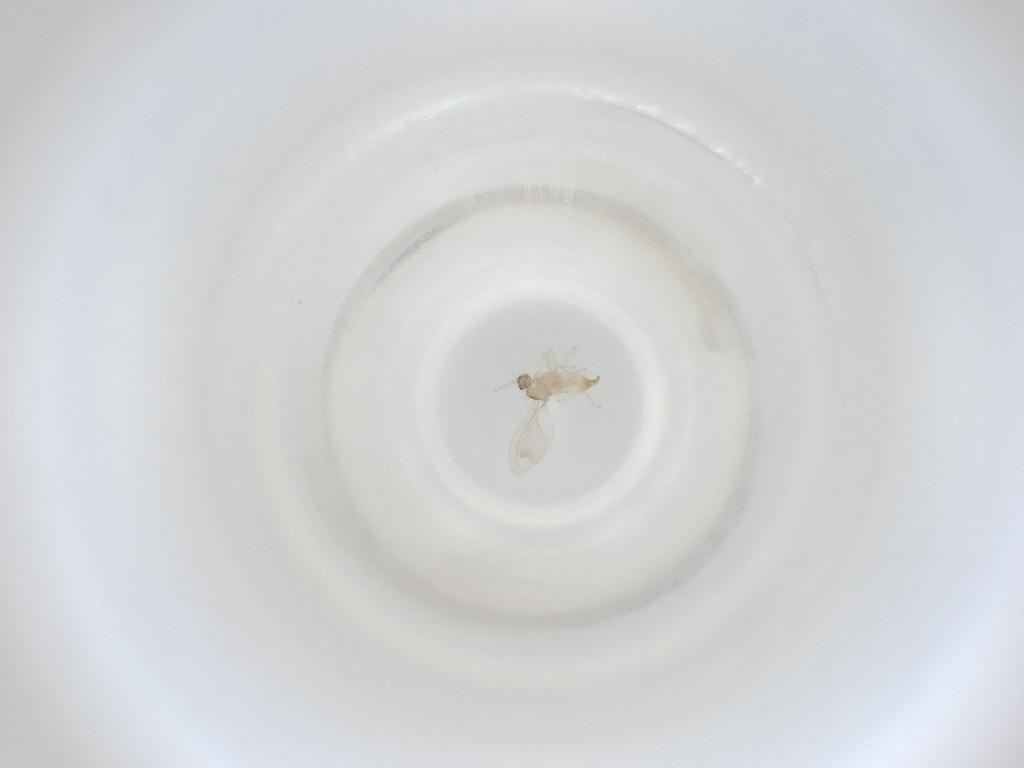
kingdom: Animalia
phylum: Arthropoda
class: Insecta
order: Diptera
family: Cecidomyiidae
